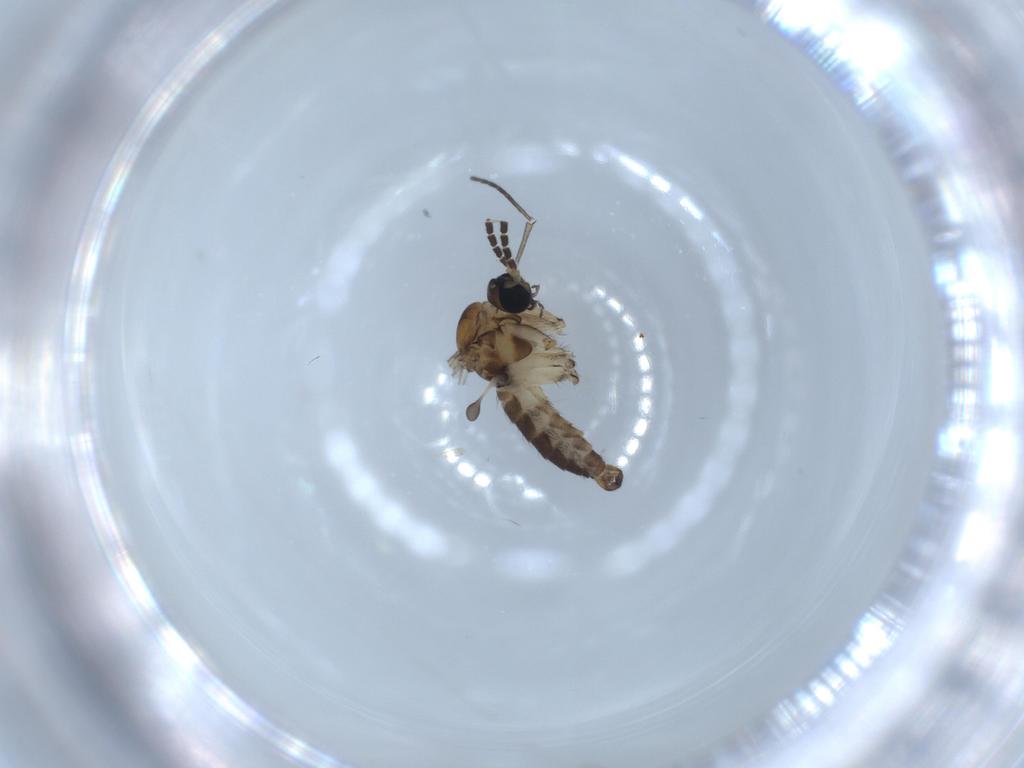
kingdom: Animalia
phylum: Arthropoda
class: Insecta
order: Diptera
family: Sciaridae
